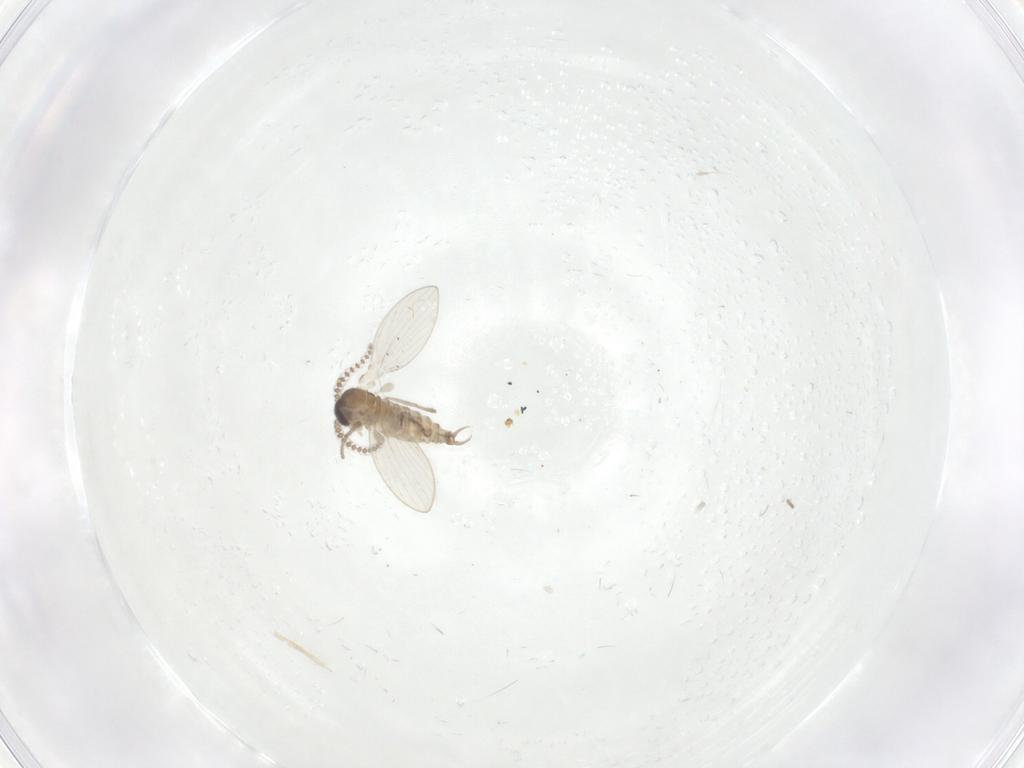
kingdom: Animalia
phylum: Arthropoda
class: Insecta
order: Diptera
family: Chironomidae
